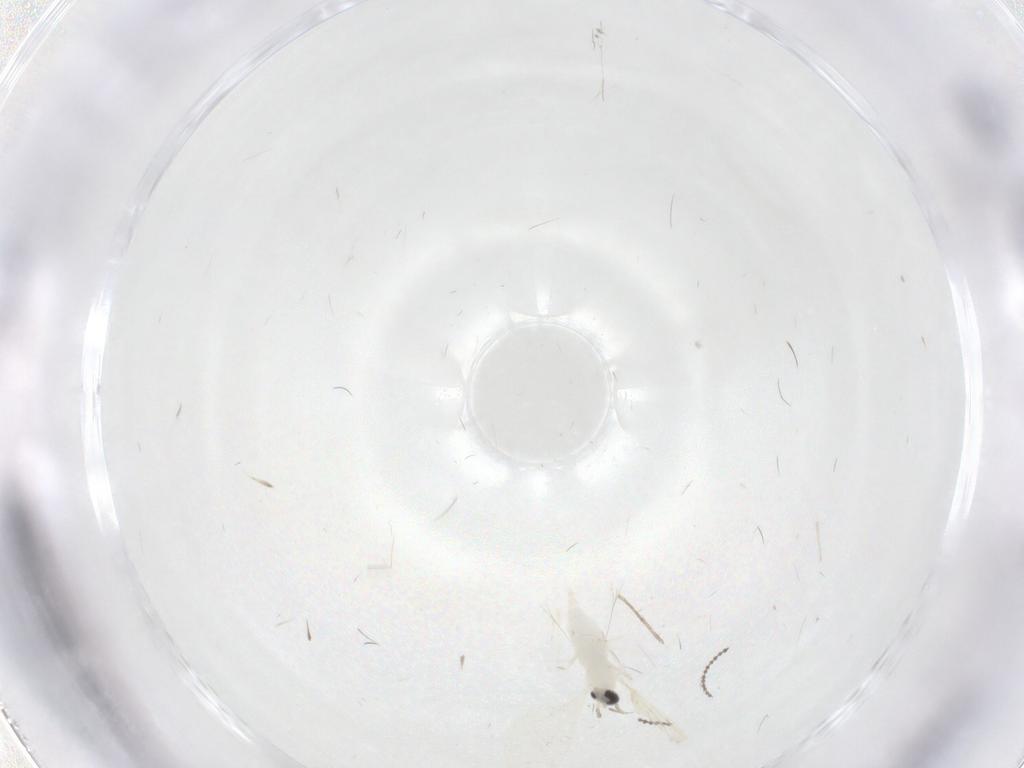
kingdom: Animalia
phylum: Arthropoda
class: Insecta
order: Diptera
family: Cecidomyiidae
